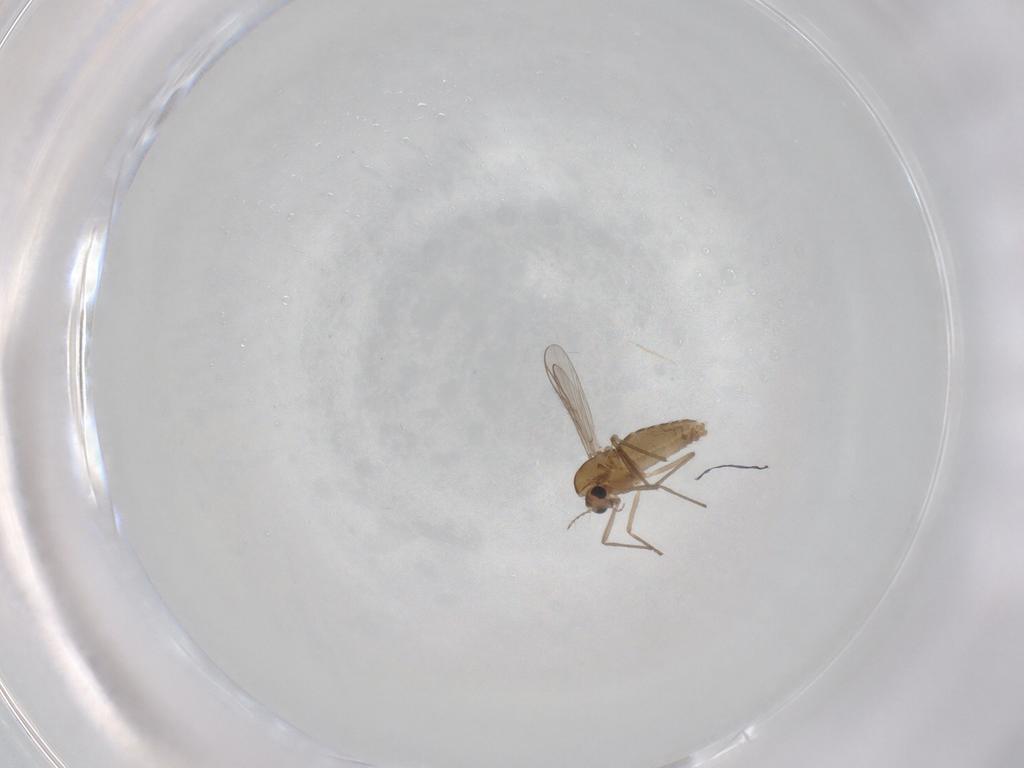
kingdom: Animalia
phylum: Arthropoda
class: Insecta
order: Diptera
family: Chironomidae
